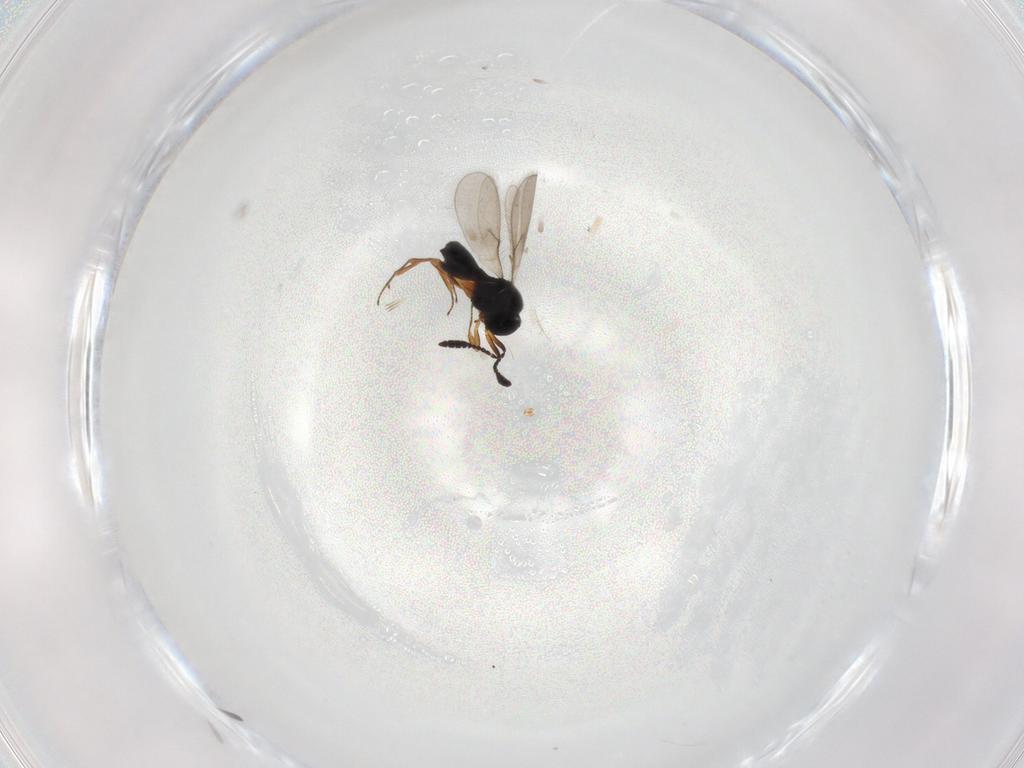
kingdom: Animalia
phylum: Arthropoda
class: Insecta
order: Hymenoptera
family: Scelionidae
